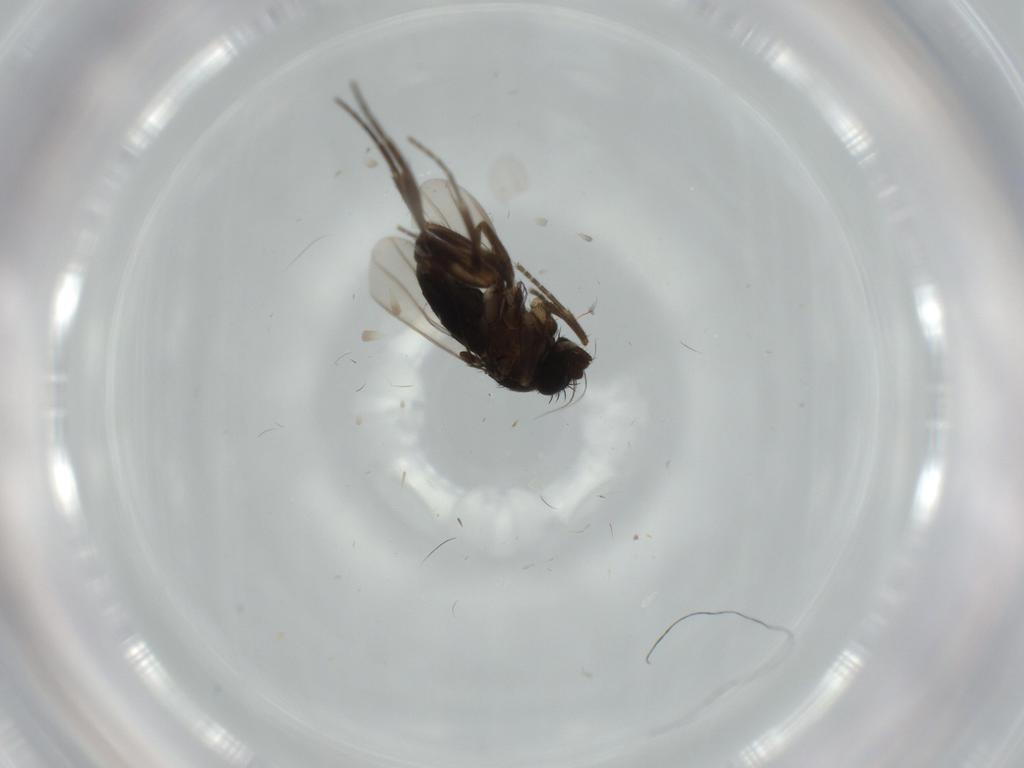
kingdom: Animalia
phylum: Arthropoda
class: Insecta
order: Diptera
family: Phoridae
